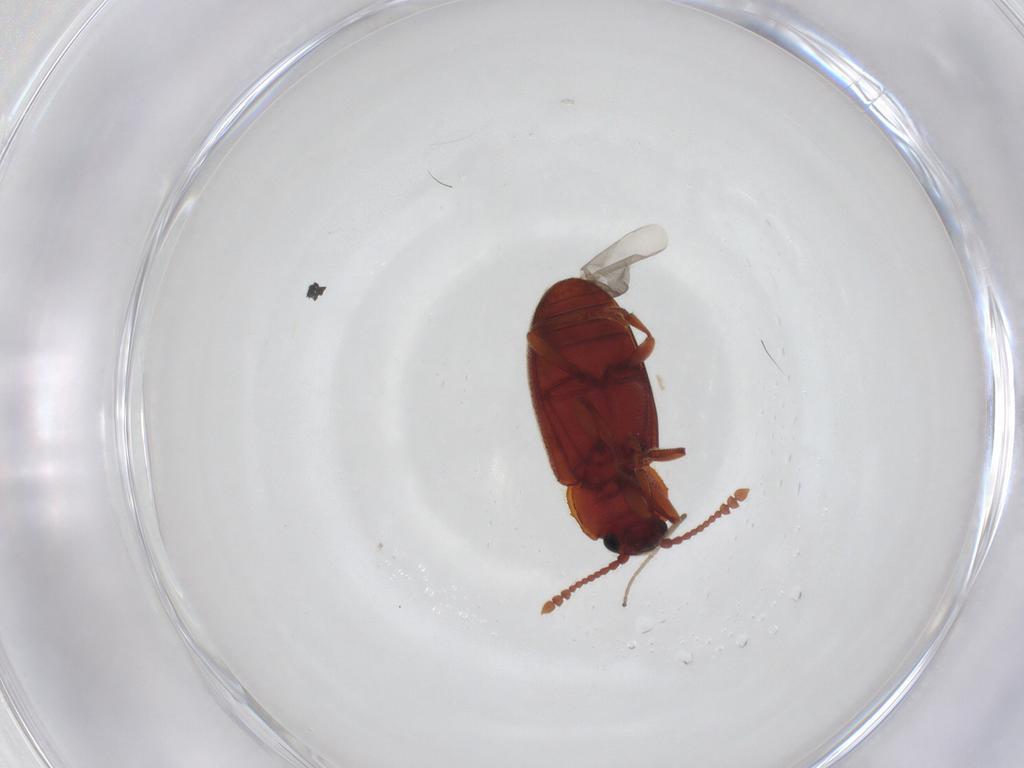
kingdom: Animalia
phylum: Arthropoda
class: Insecta
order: Coleoptera
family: Cryptophagidae
